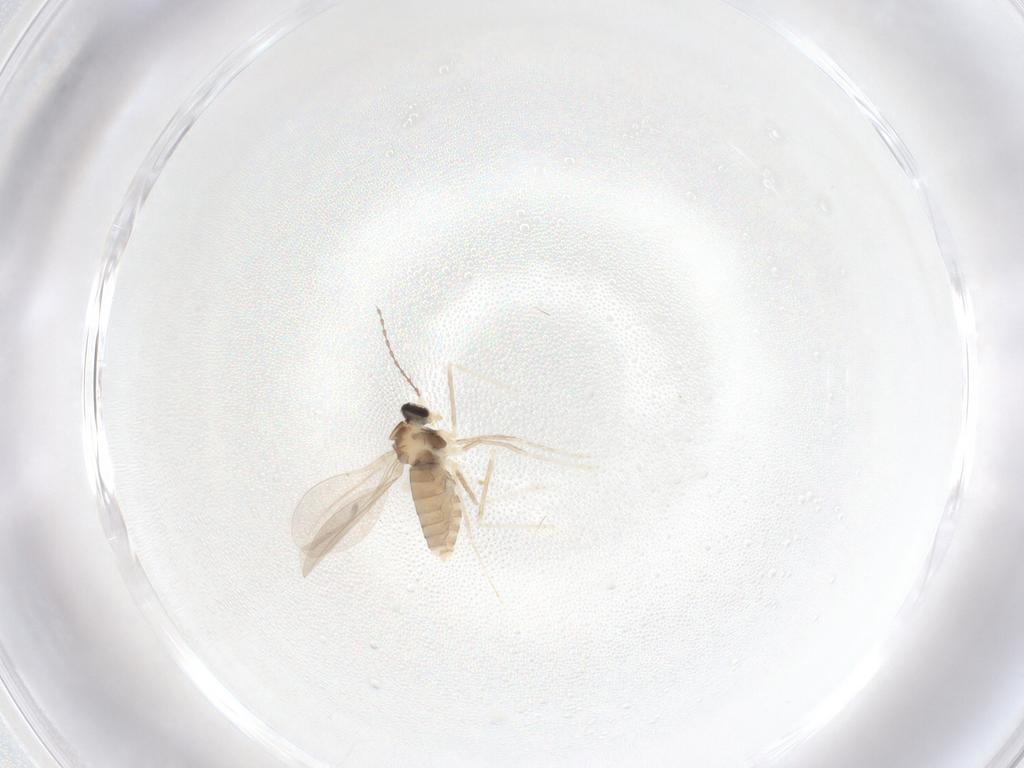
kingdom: Animalia
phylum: Arthropoda
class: Insecta
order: Diptera
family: Cecidomyiidae
